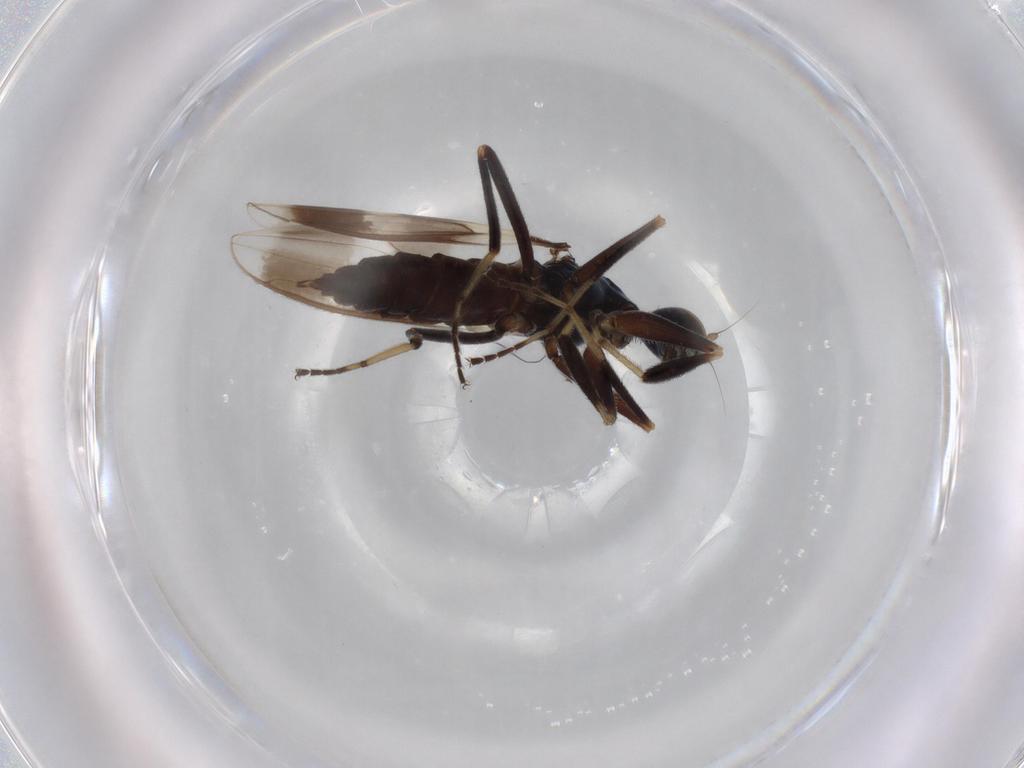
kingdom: Animalia
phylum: Arthropoda
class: Insecta
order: Diptera
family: Hybotidae
